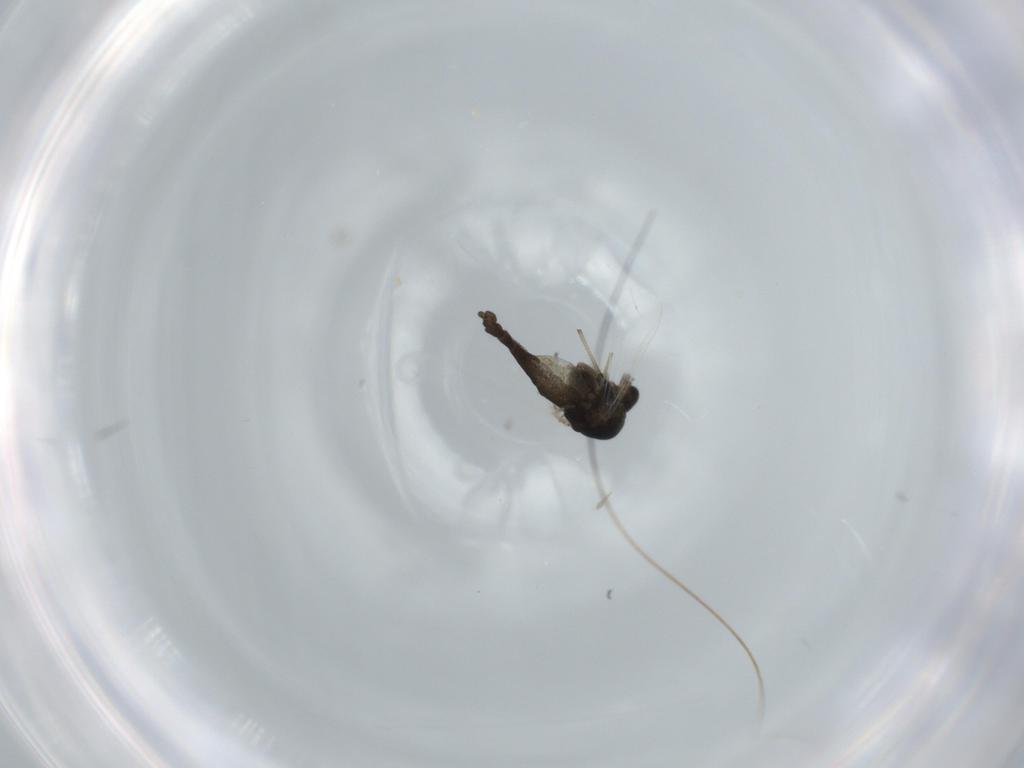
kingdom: Animalia
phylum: Arthropoda
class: Insecta
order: Diptera
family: Chironomidae
